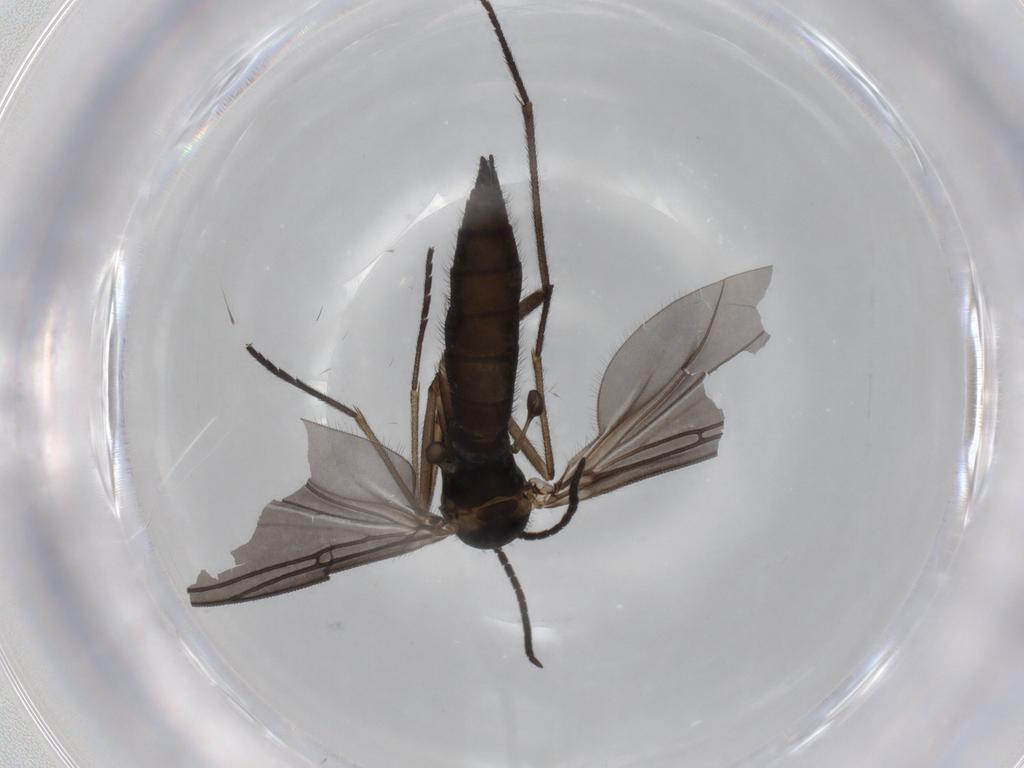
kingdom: Animalia
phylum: Arthropoda
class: Insecta
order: Diptera
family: Sciaridae
